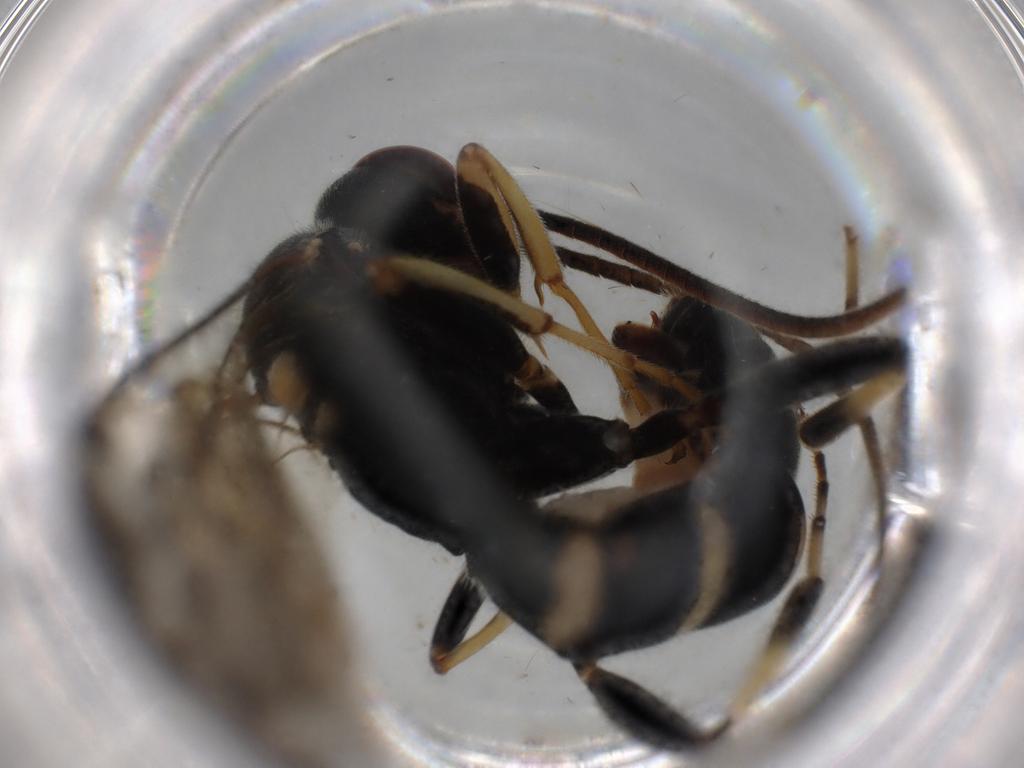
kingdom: Animalia
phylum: Arthropoda
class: Insecta
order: Hymenoptera
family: Ichneumonidae
